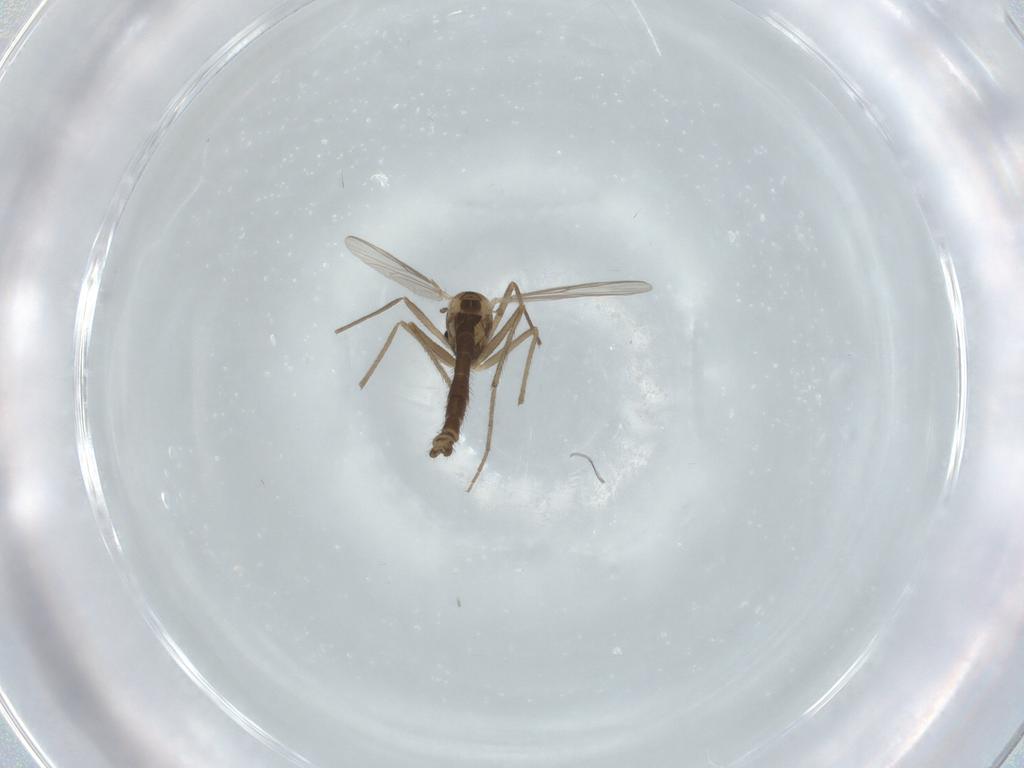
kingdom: Animalia
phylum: Arthropoda
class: Insecta
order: Diptera
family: Chironomidae
